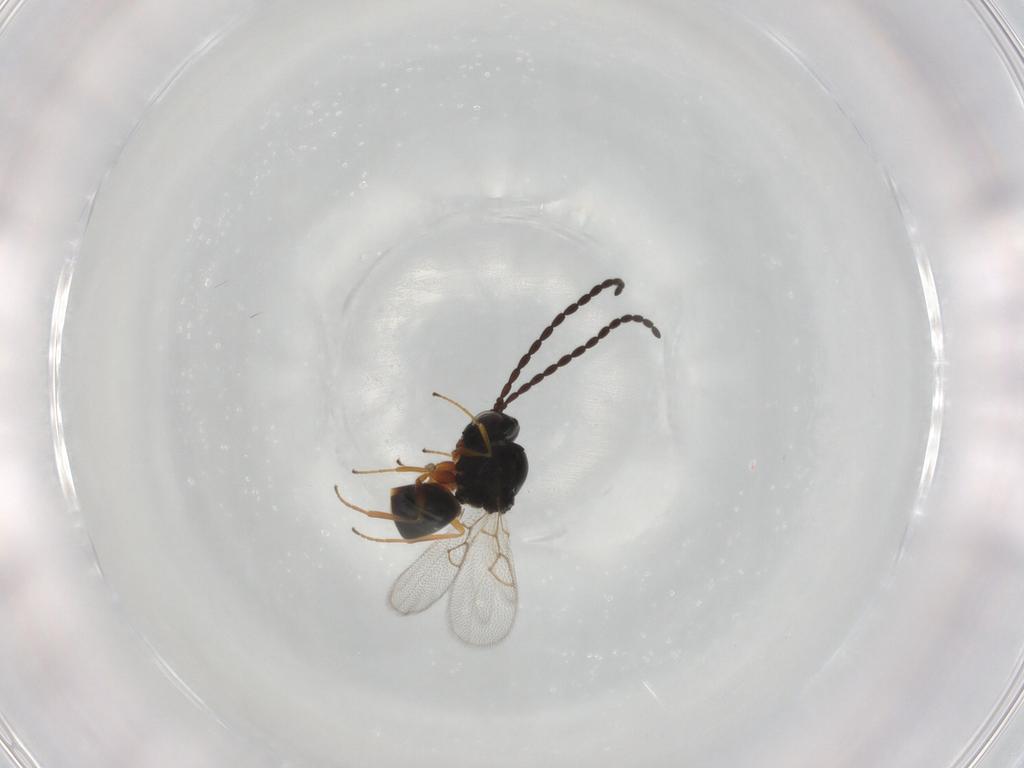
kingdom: Animalia
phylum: Arthropoda
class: Insecta
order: Hymenoptera
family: Figitidae
